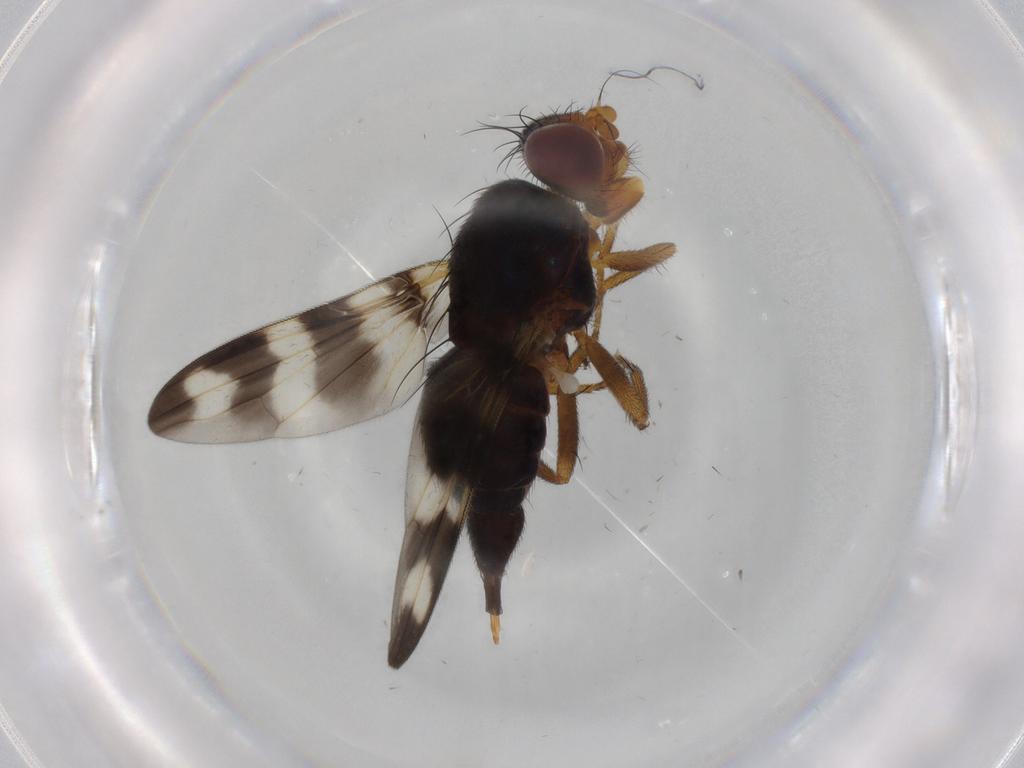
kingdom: Animalia
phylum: Arthropoda
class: Insecta
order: Diptera
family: Ulidiidae
